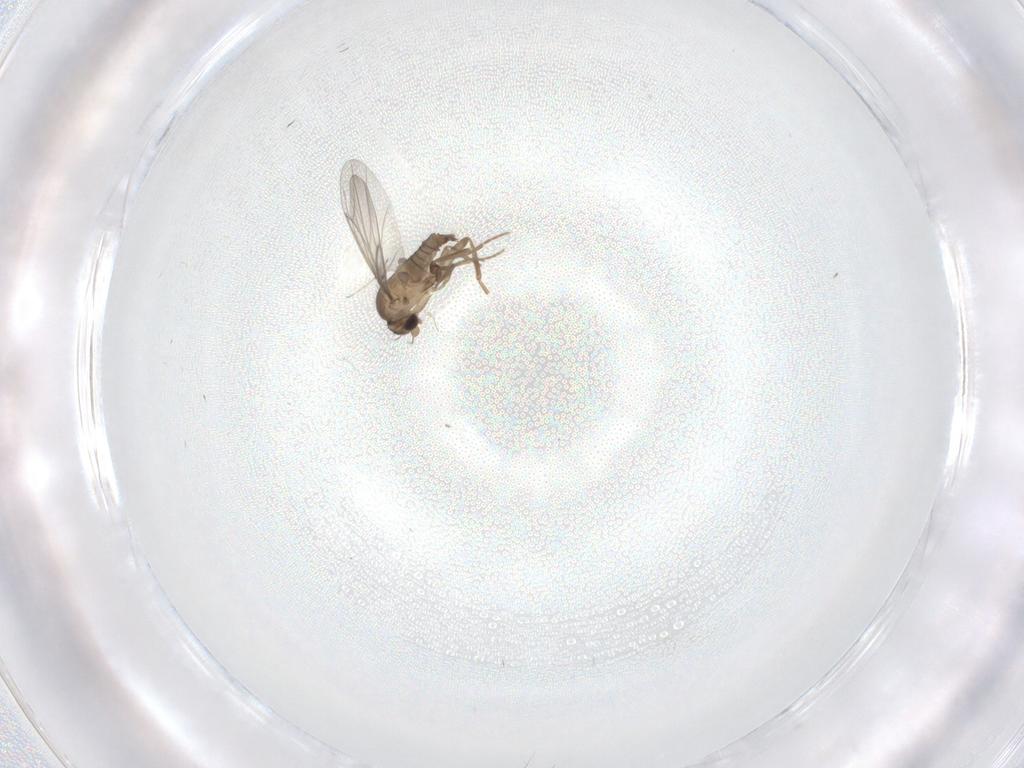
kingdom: Animalia
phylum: Arthropoda
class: Insecta
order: Diptera
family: Chironomidae
